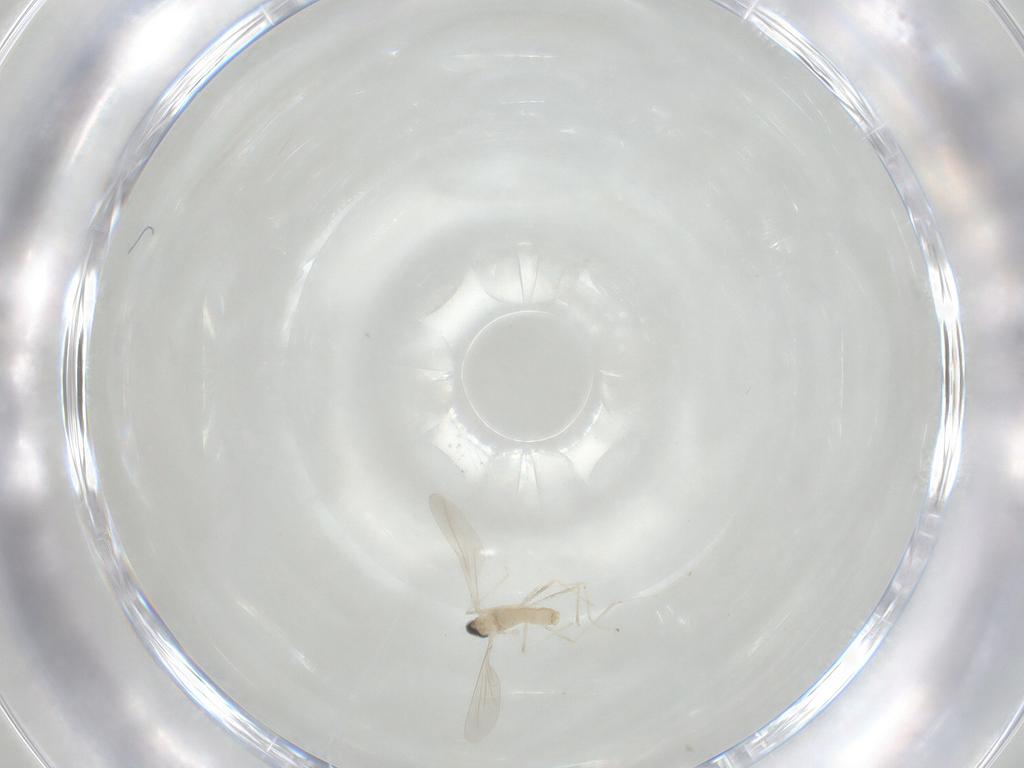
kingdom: Animalia
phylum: Arthropoda
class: Insecta
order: Diptera
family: Cecidomyiidae
